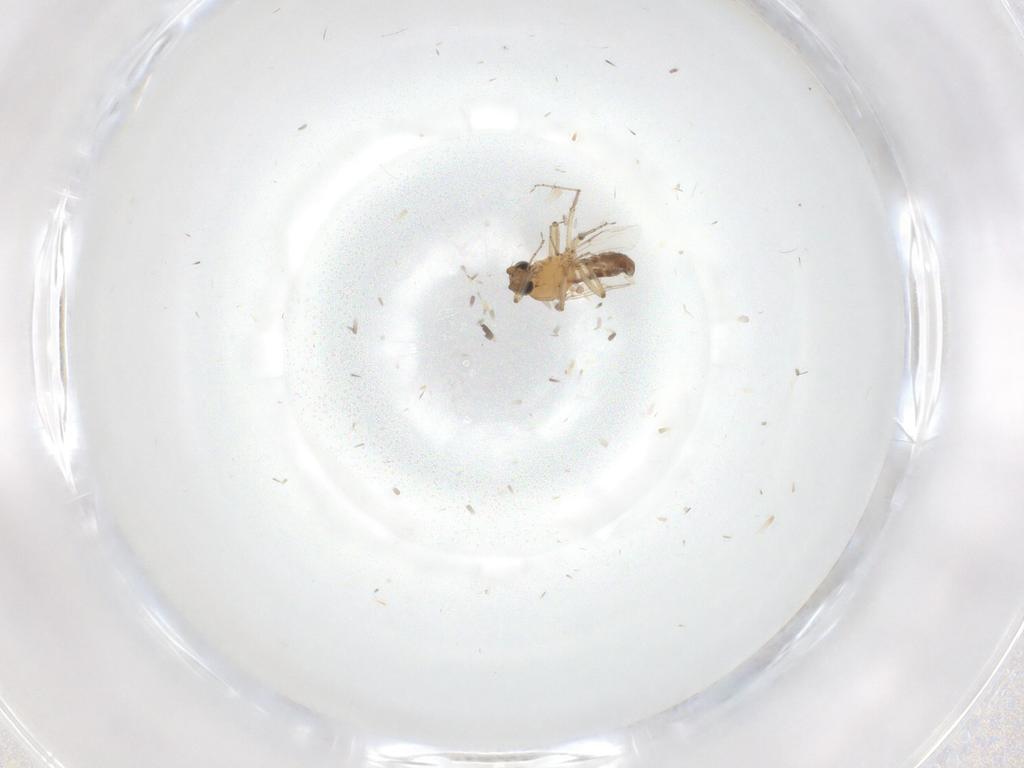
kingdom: Animalia
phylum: Arthropoda
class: Insecta
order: Diptera
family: Ceratopogonidae
